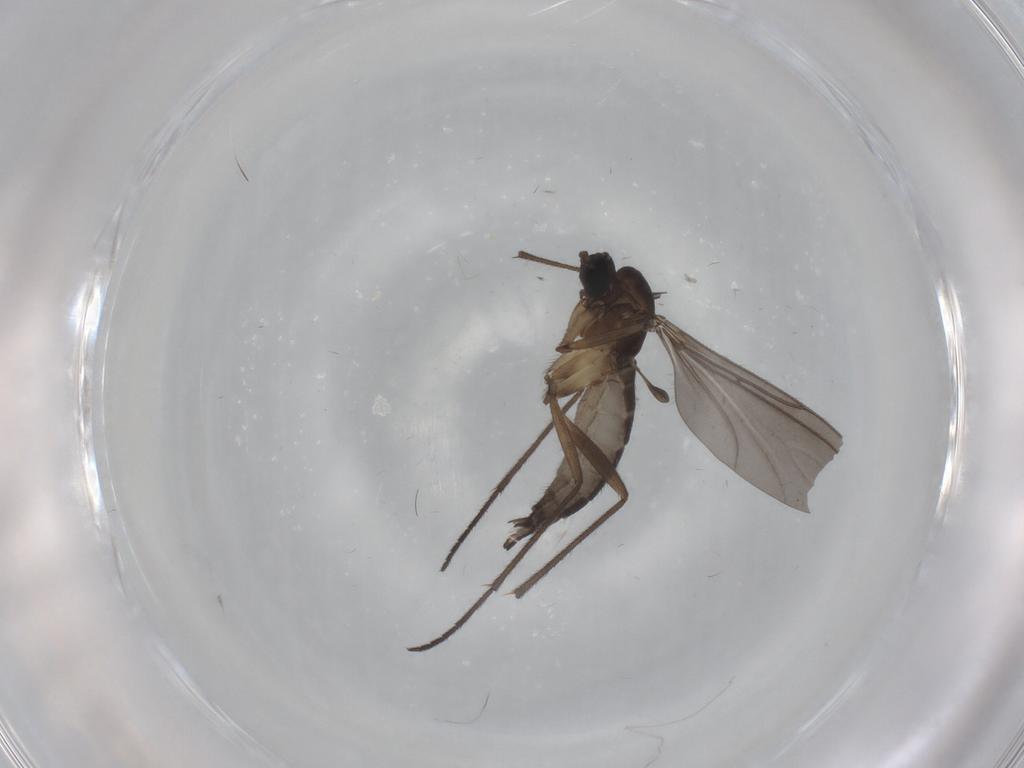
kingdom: Animalia
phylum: Arthropoda
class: Insecta
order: Diptera
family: Sciaridae
